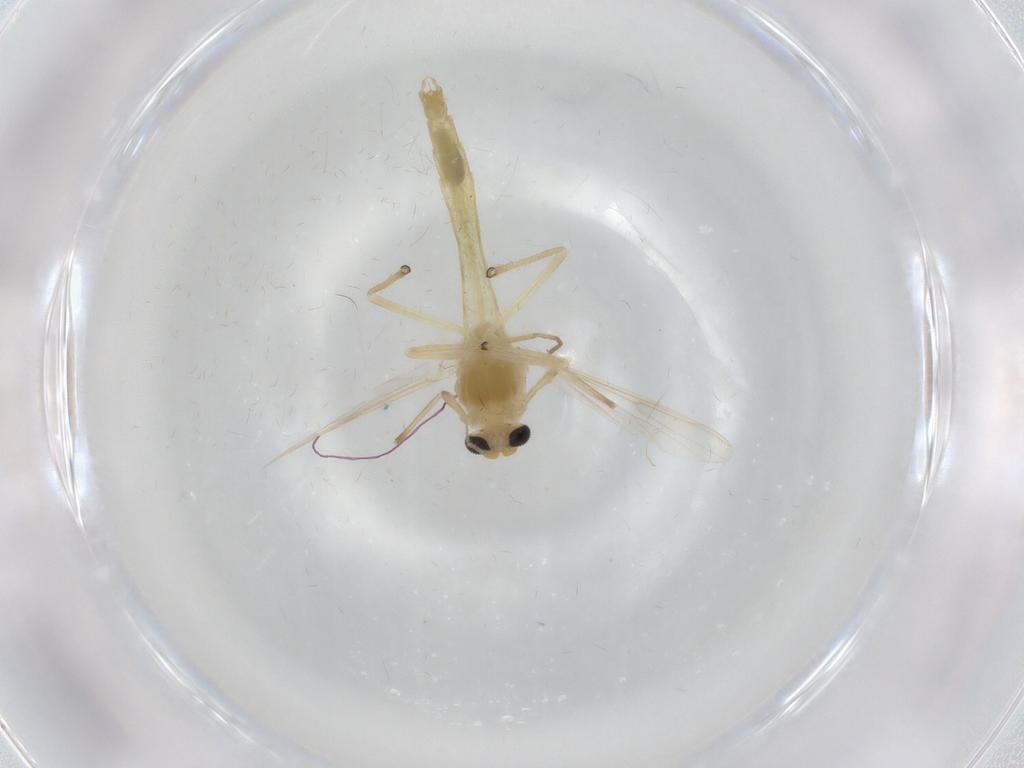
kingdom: Animalia
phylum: Arthropoda
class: Insecta
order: Diptera
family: Chironomidae
